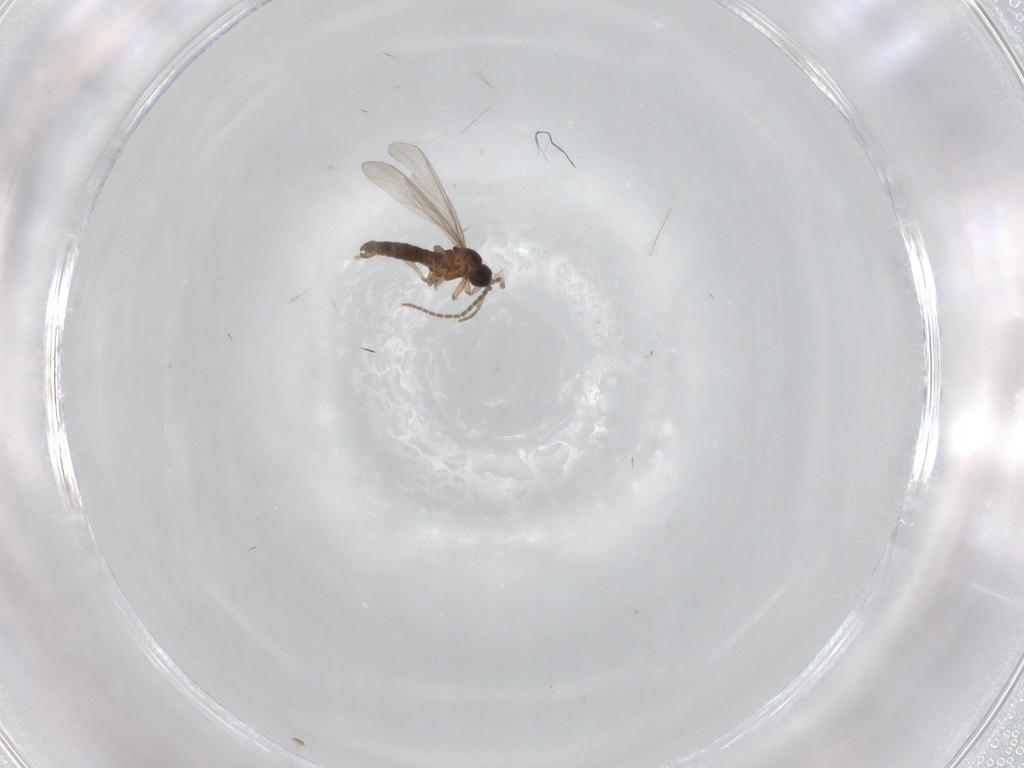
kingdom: Animalia
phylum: Arthropoda
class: Insecta
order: Diptera
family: Sciaridae
